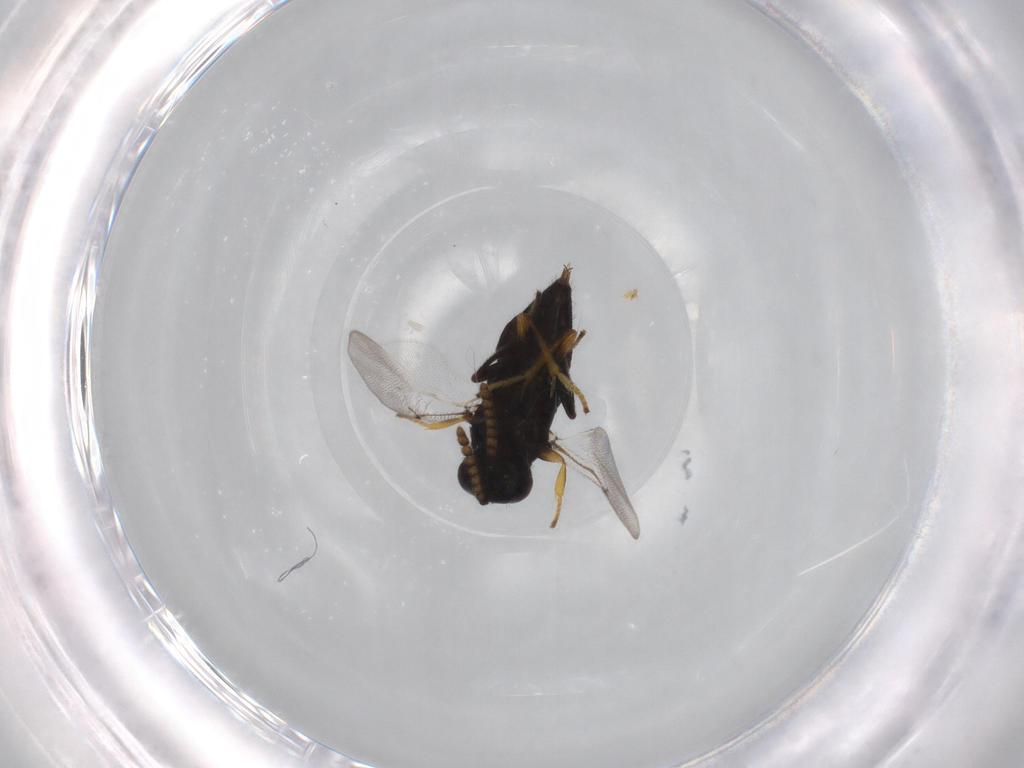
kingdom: Animalia
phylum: Arthropoda
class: Insecta
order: Hymenoptera
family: Encyrtidae
